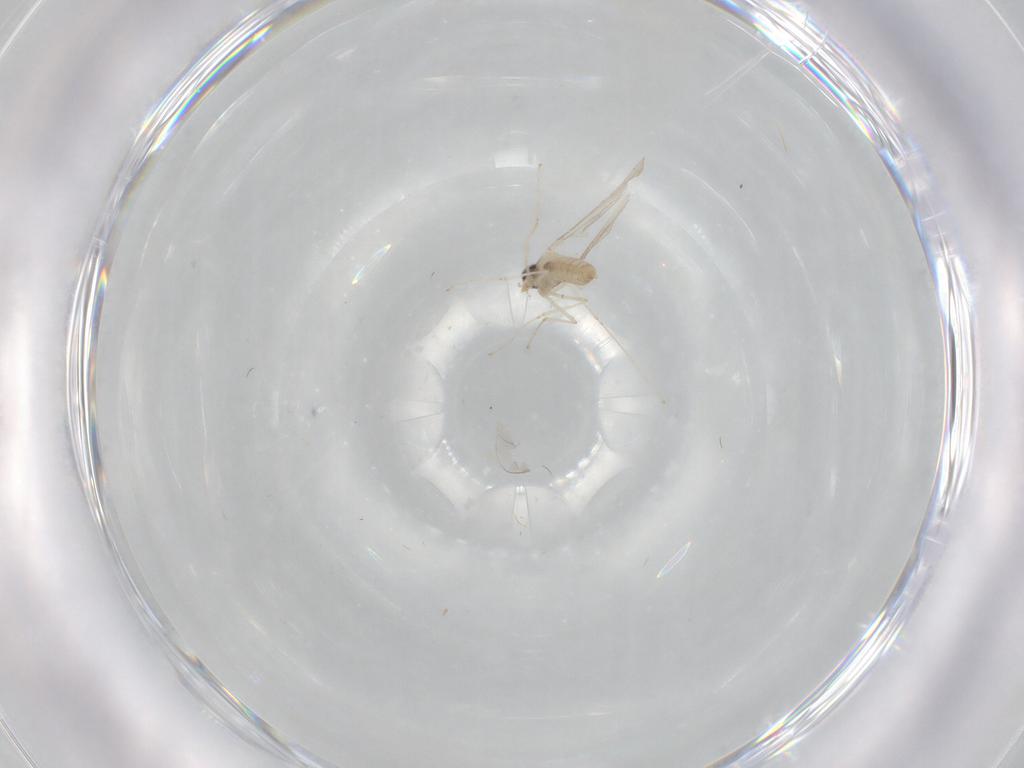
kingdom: Animalia
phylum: Arthropoda
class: Insecta
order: Diptera
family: Cecidomyiidae
